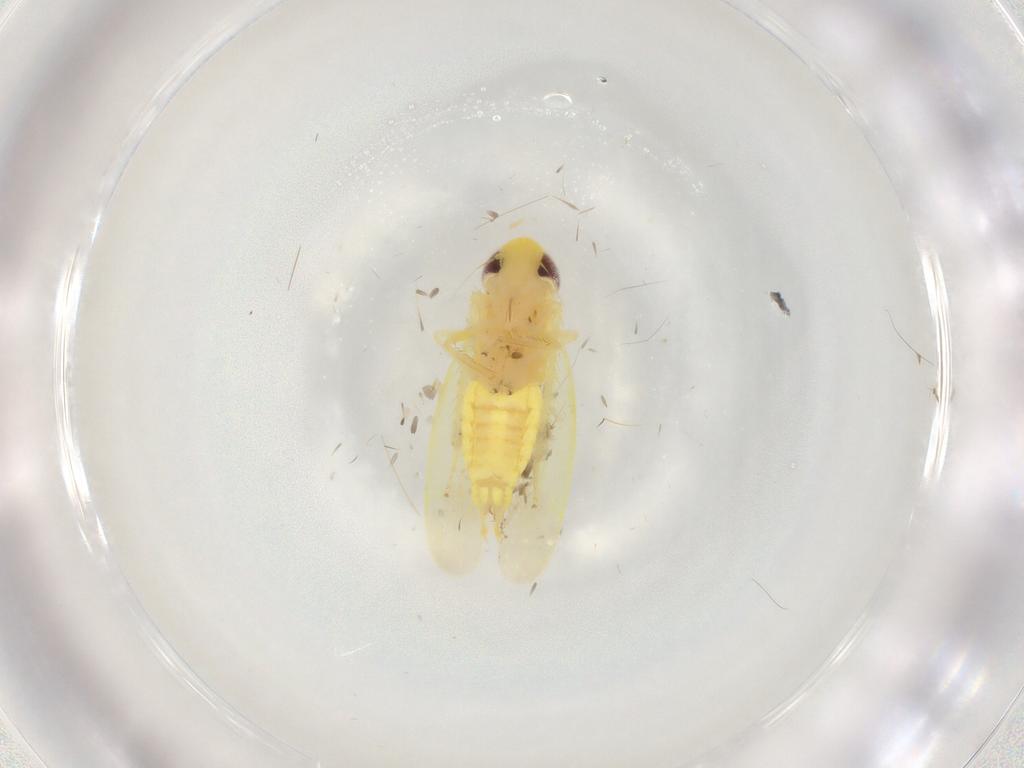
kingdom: Animalia
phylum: Arthropoda
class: Insecta
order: Hemiptera
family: Cicadellidae
